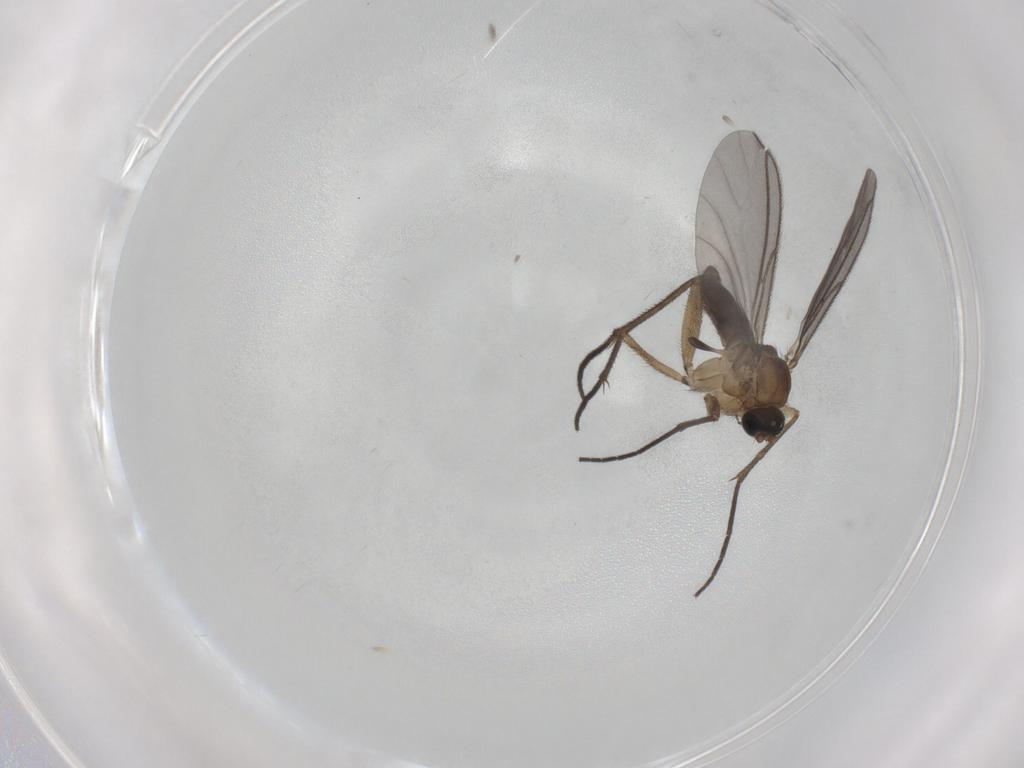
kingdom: Animalia
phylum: Arthropoda
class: Insecta
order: Diptera
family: Sciaridae
